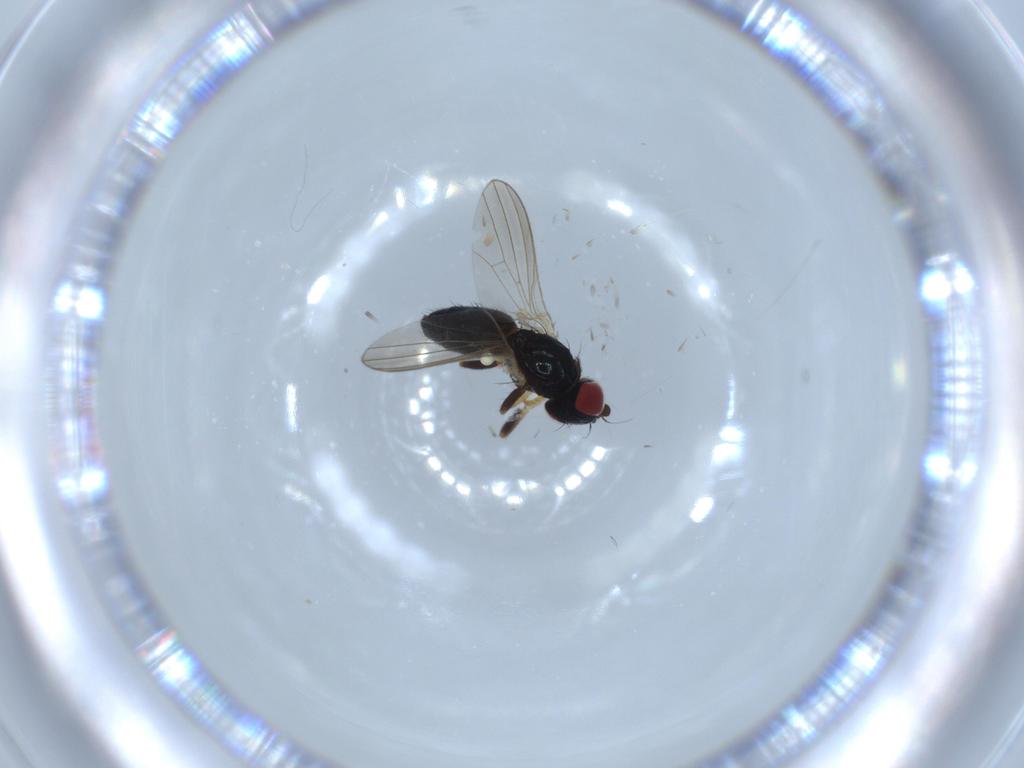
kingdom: Animalia
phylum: Arthropoda
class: Insecta
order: Diptera
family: Chamaemyiidae
